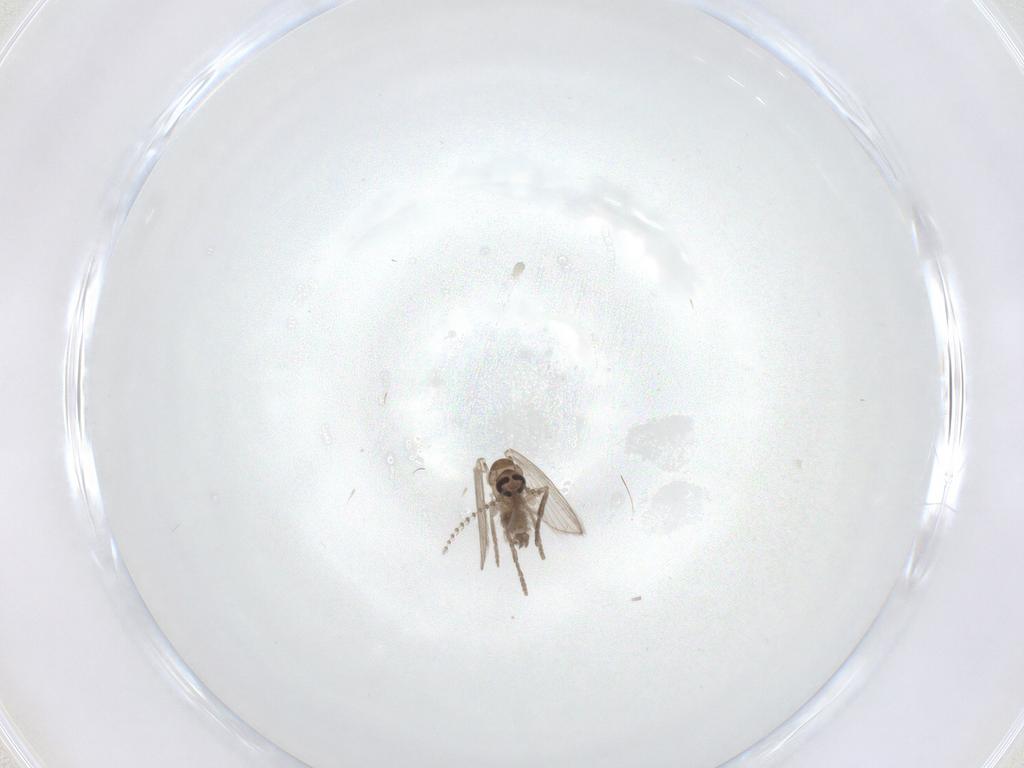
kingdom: Animalia
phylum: Arthropoda
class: Insecta
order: Diptera
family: Psychodidae
